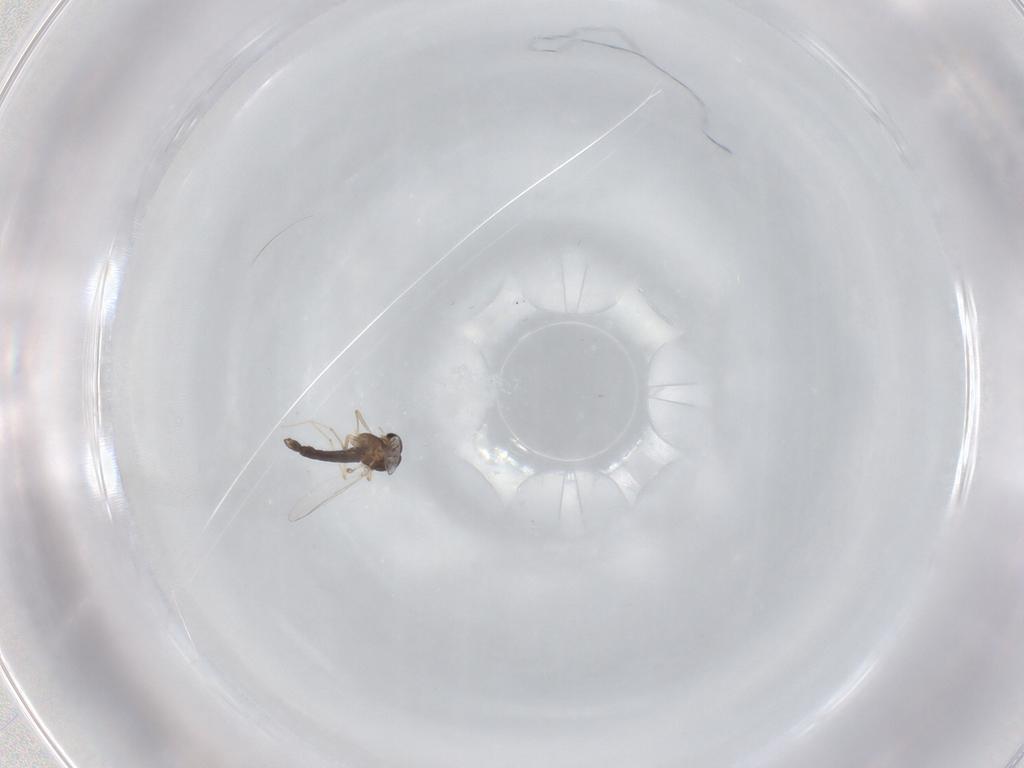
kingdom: Animalia
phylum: Arthropoda
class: Insecta
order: Diptera
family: Chironomidae
